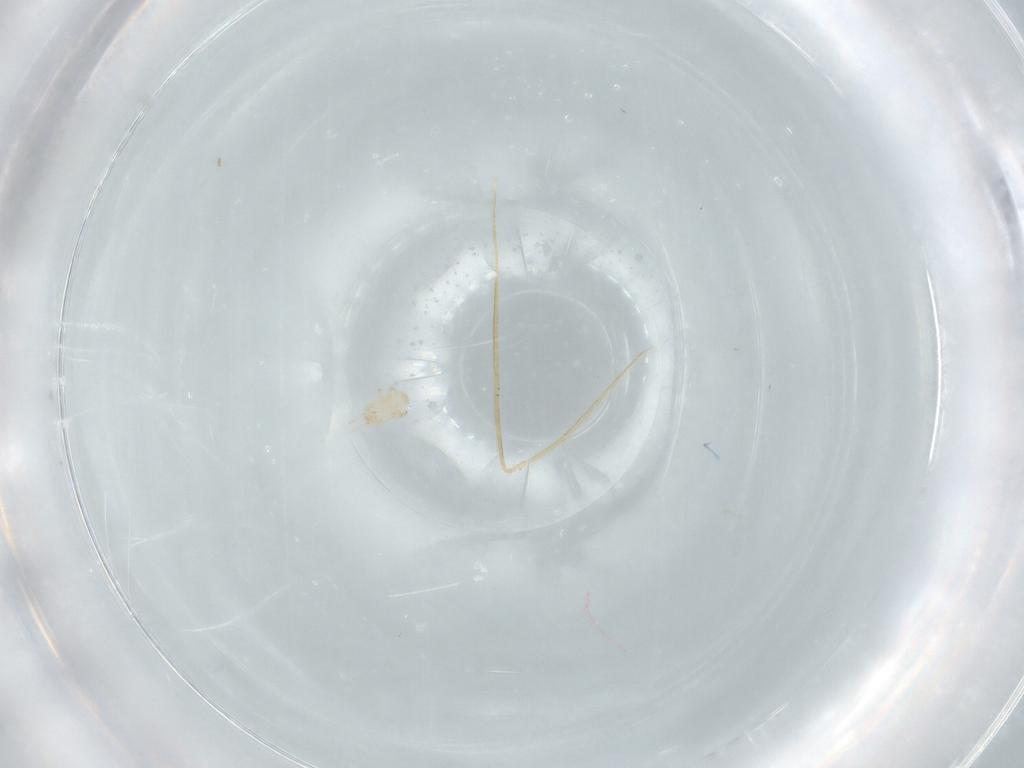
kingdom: Animalia
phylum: Arthropoda
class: Arachnida
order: Mesostigmata
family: Digamasellidae
